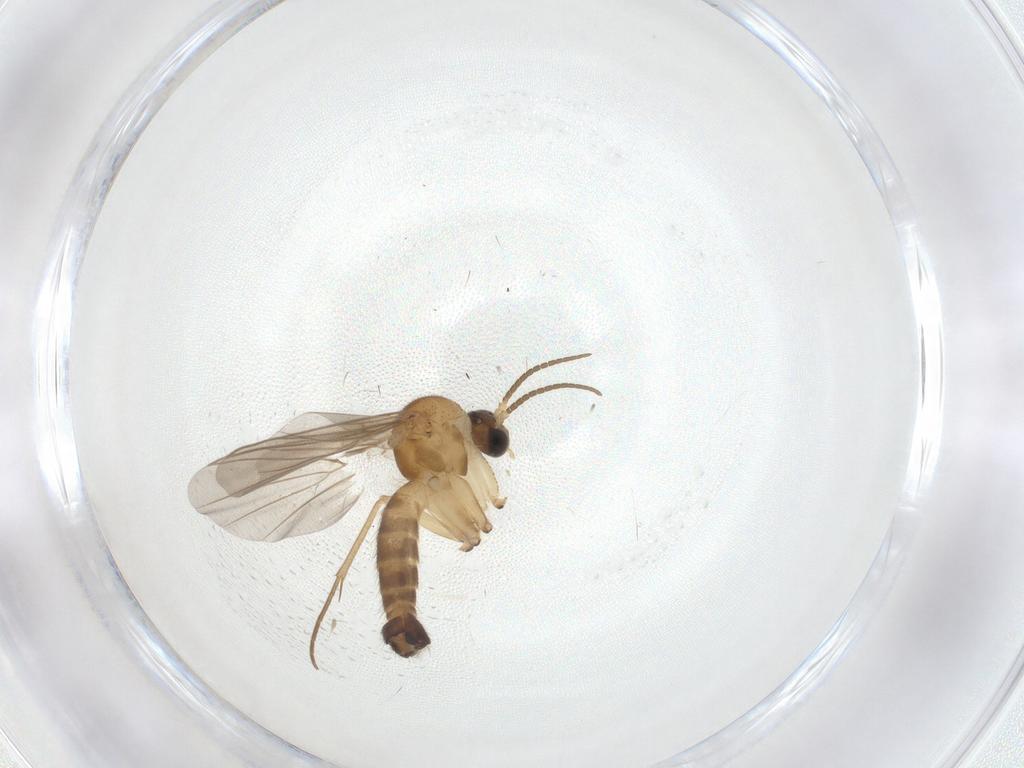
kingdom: Animalia
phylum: Arthropoda
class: Insecta
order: Diptera
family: Mycetophilidae
